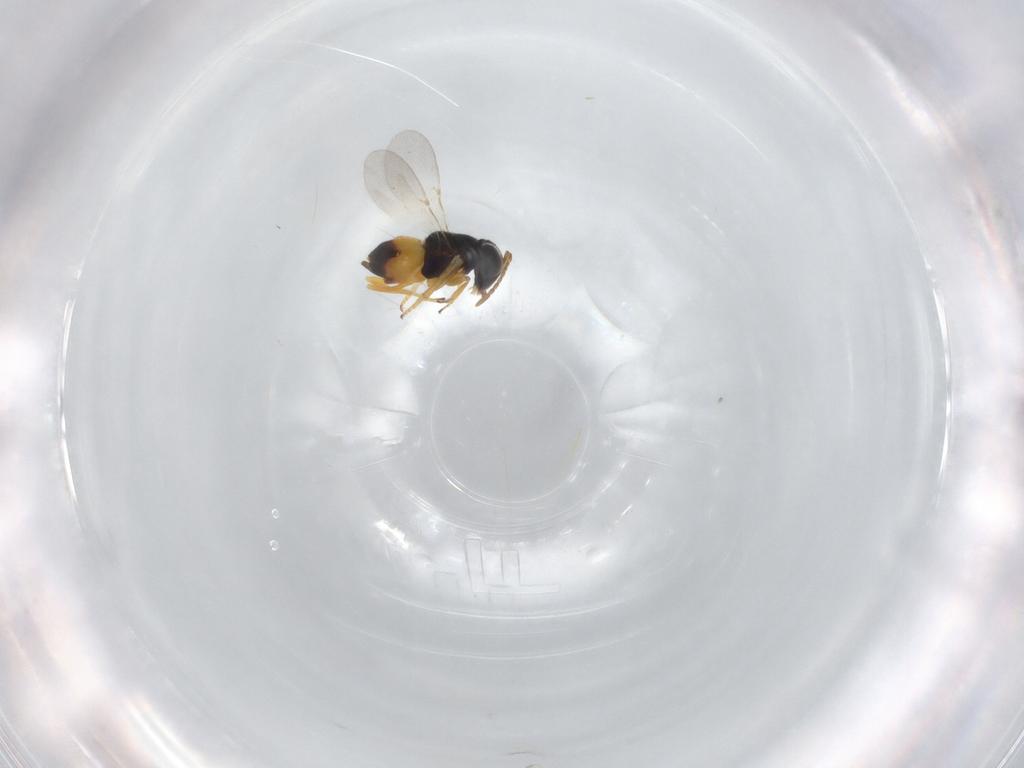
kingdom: Animalia
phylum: Arthropoda
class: Insecta
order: Hymenoptera
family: Encyrtidae
